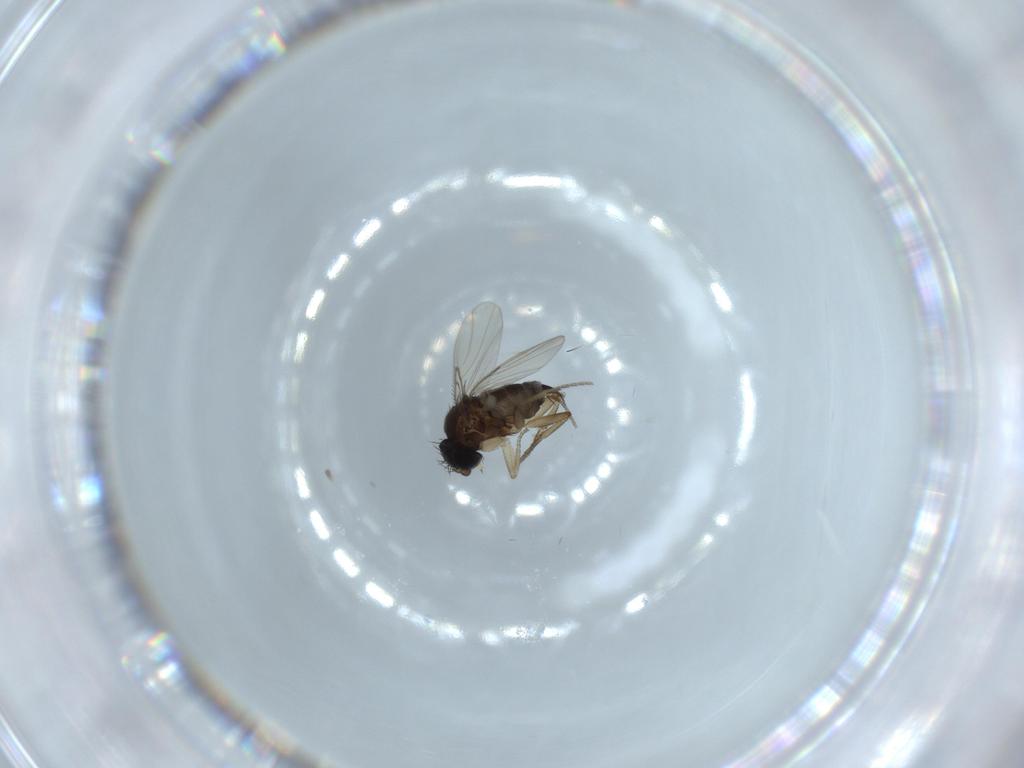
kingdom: Animalia
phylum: Arthropoda
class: Insecta
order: Diptera
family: Phoridae
